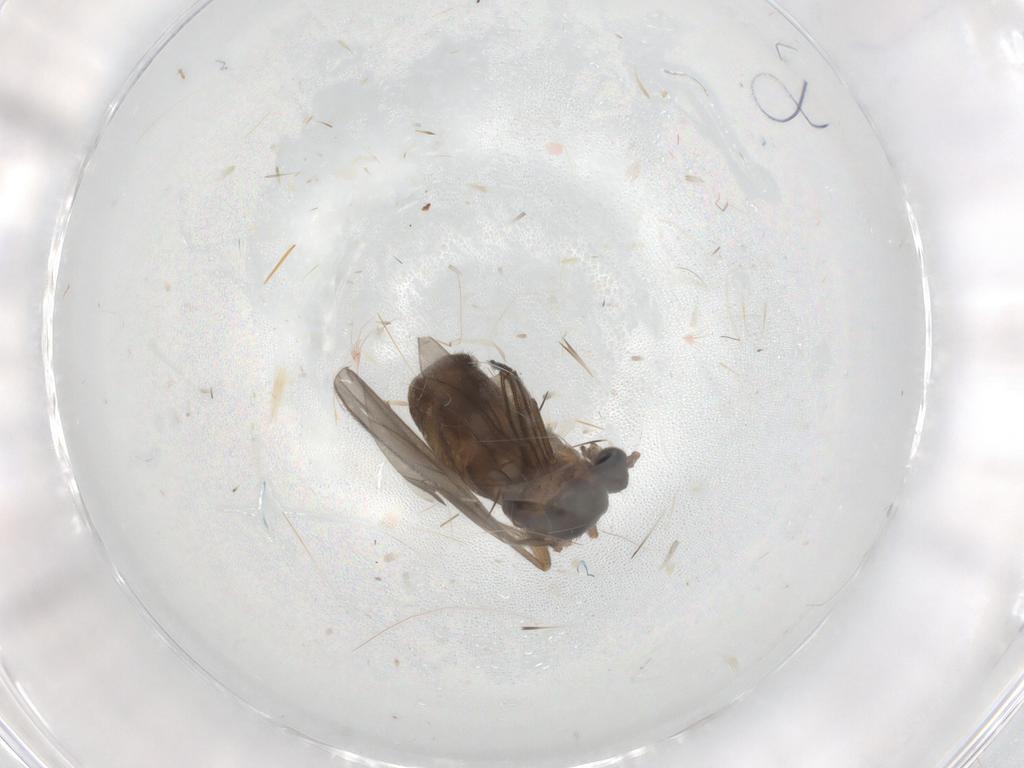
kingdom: Animalia
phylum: Arthropoda
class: Insecta
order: Diptera
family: Sciaridae
